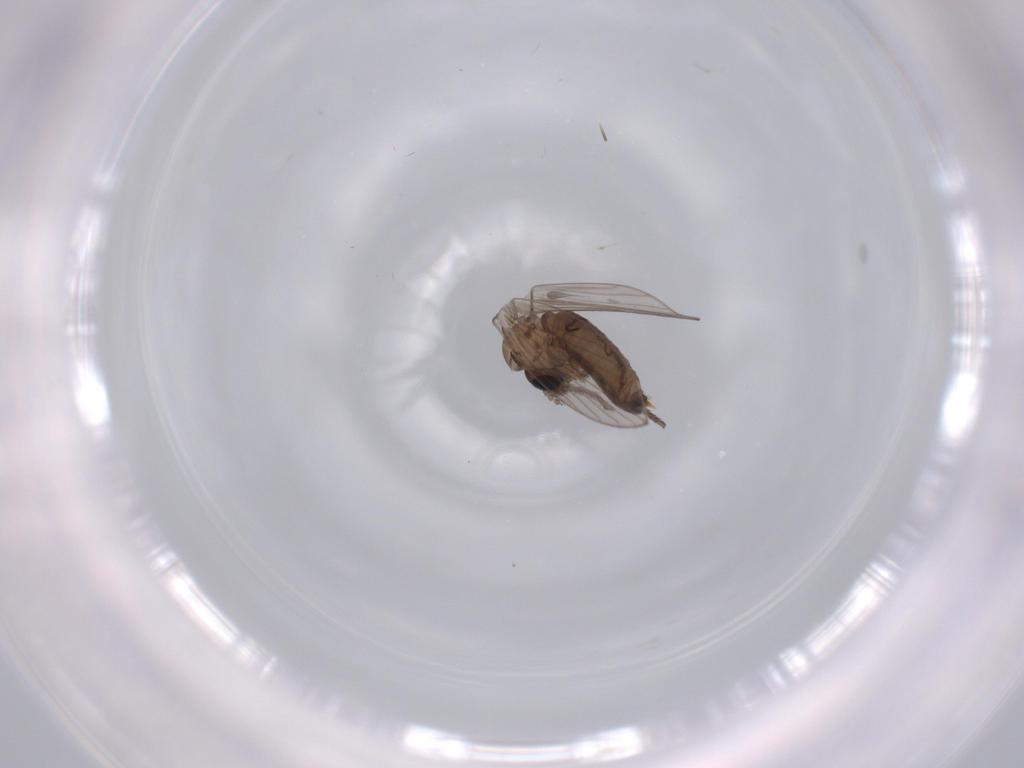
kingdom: Animalia
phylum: Arthropoda
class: Insecta
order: Diptera
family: Psychodidae
